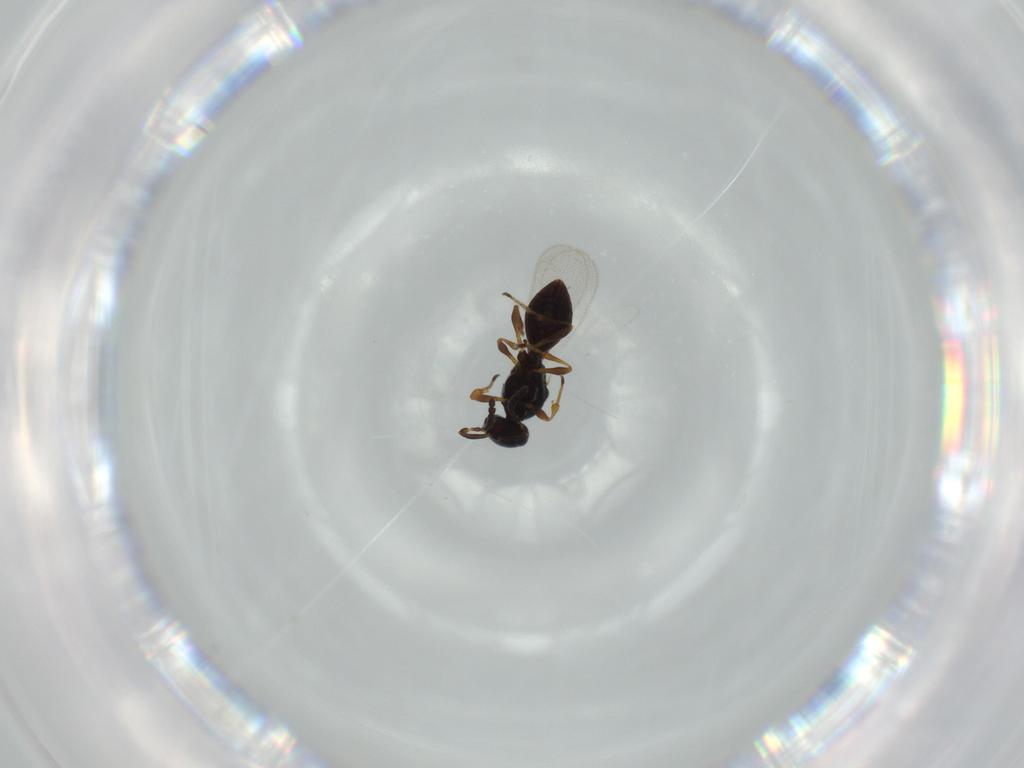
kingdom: Animalia
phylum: Arthropoda
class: Insecta
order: Hymenoptera
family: Platygastridae
